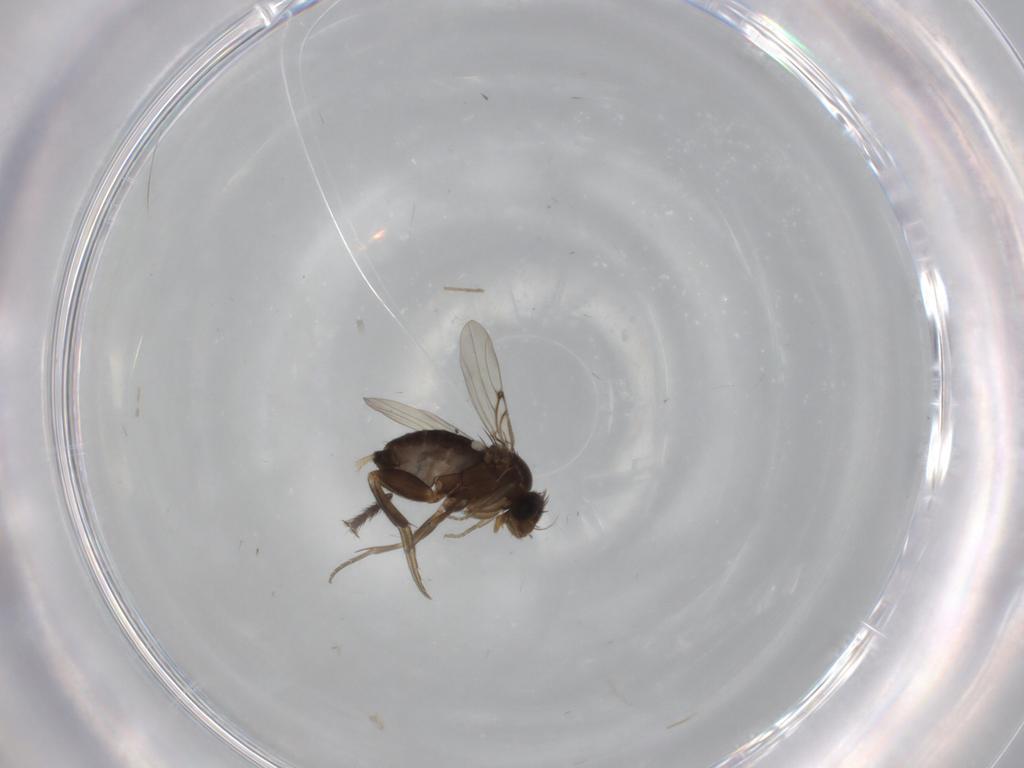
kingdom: Animalia
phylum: Arthropoda
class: Insecta
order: Diptera
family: Phoridae
